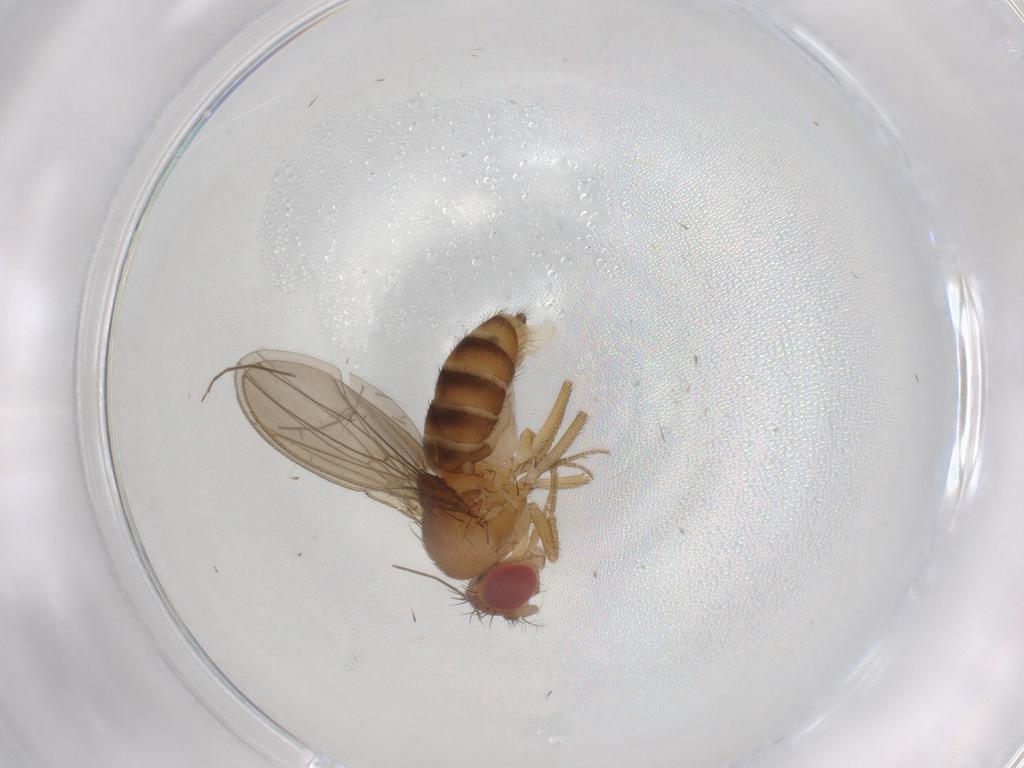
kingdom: Animalia
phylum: Arthropoda
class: Insecta
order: Diptera
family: Drosophilidae
